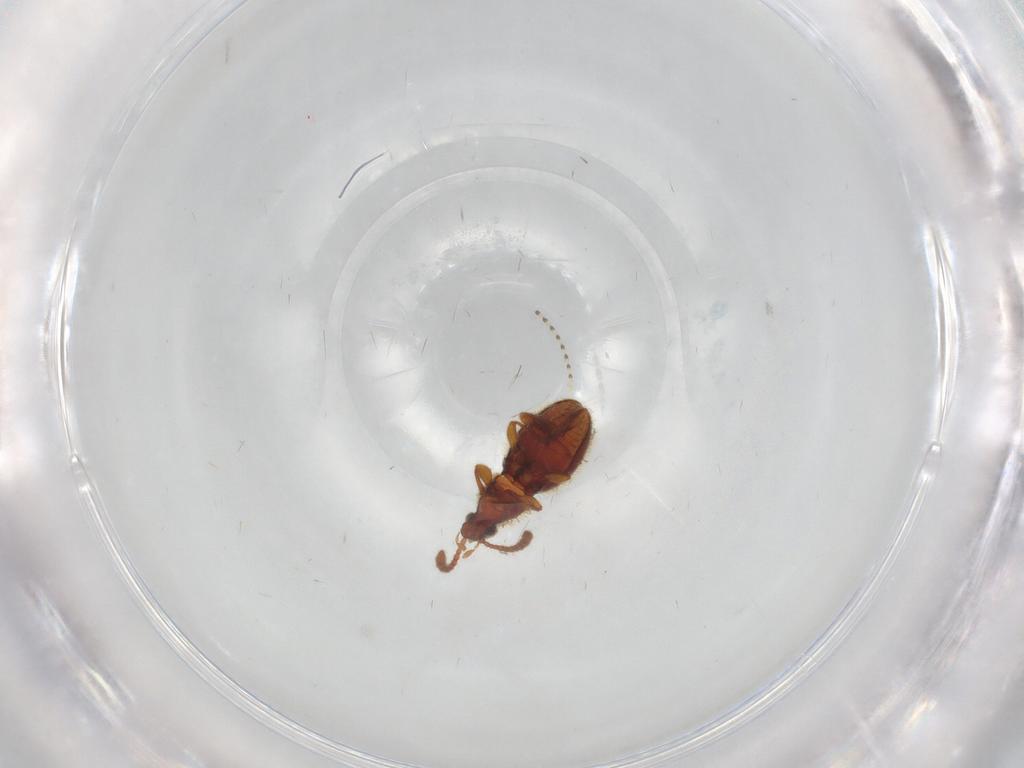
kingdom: Animalia
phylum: Arthropoda
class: Insecta
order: Coleoptera
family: Staphylinidae
